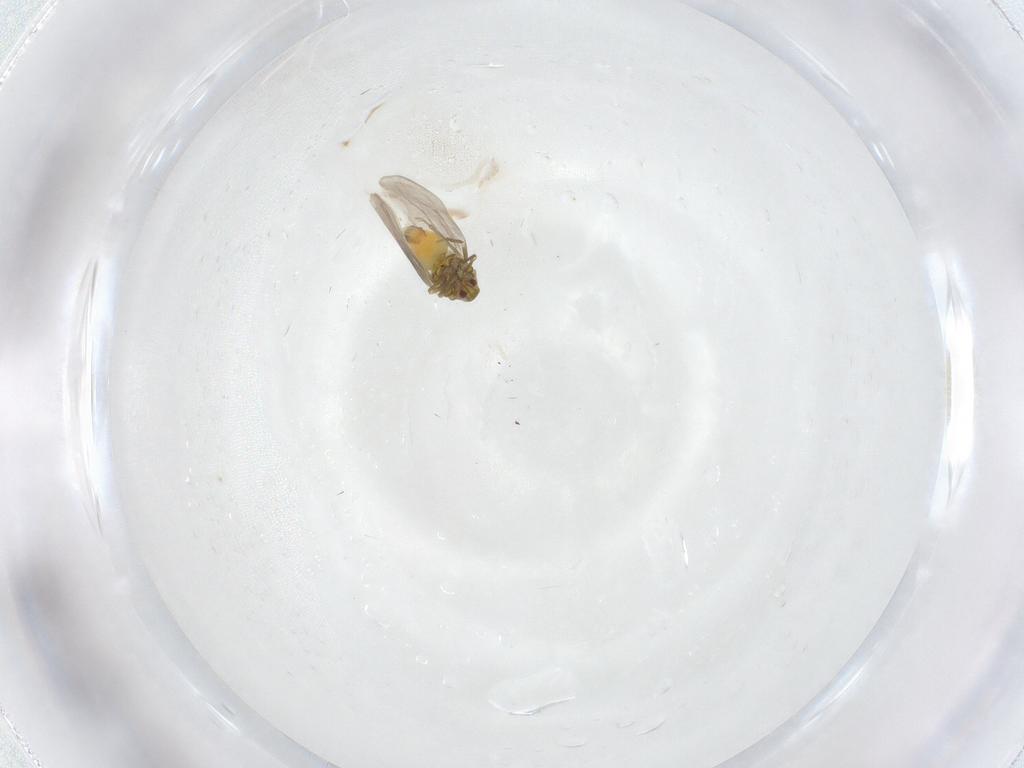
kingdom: Animalia
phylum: Arthropoda
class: Insecta
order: Hemiptera
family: Aleyrodidae
